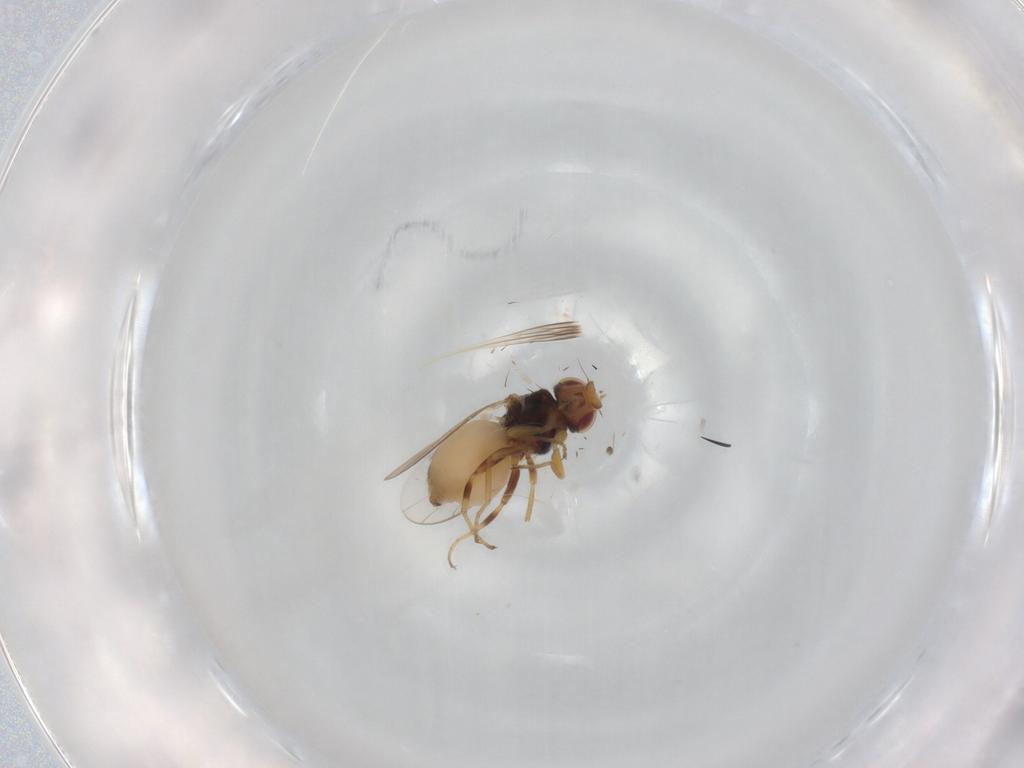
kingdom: Animalia
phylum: Arthropoda
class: Insecta
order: Diptera
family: Chloropidae
